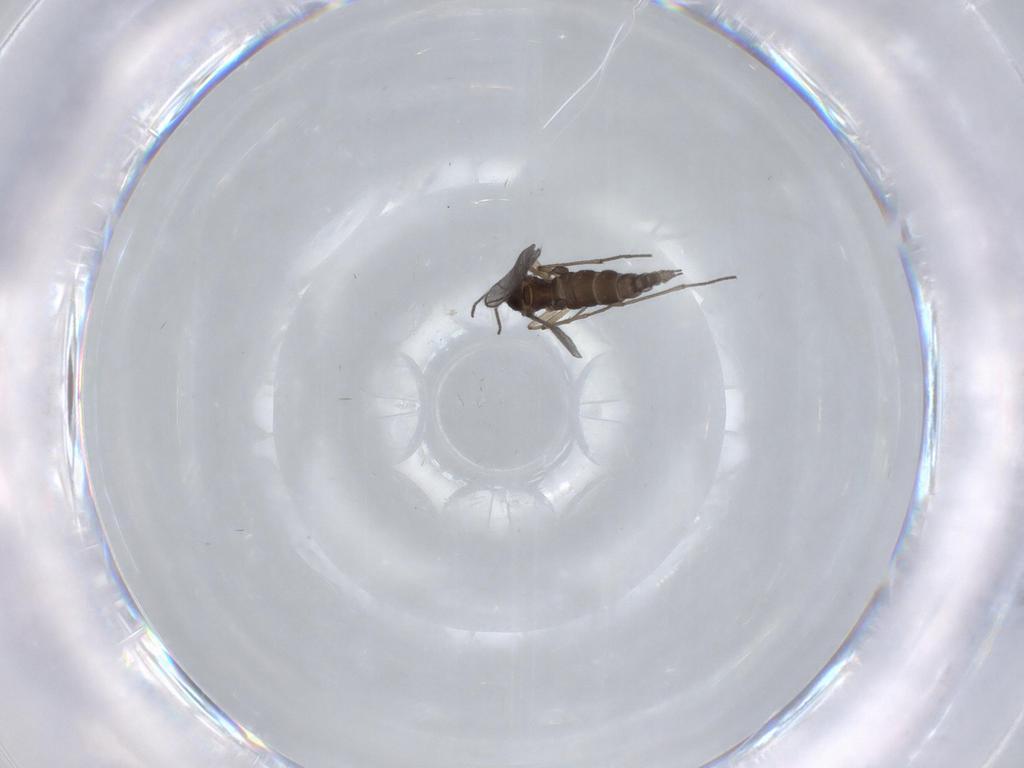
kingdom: Animalia
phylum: Arthropoda
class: Insecta
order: Diptera
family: Sciaridae
